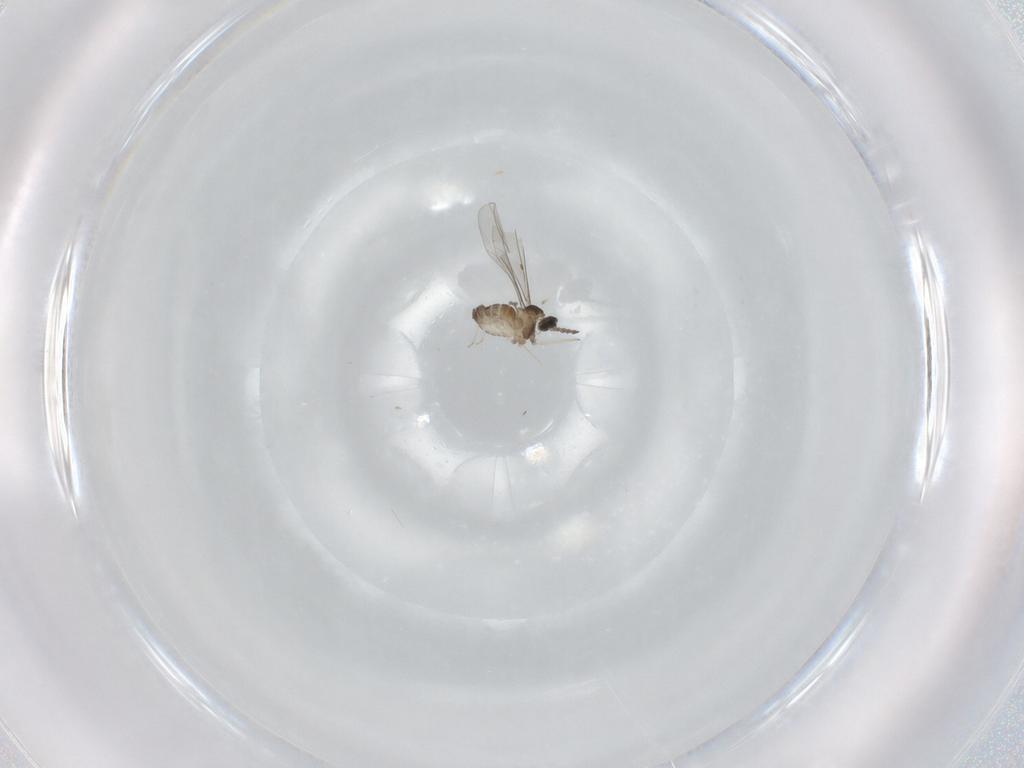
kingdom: Animalia
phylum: Arthropoda
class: Insecta
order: Diptera
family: Cecidomyiidae
